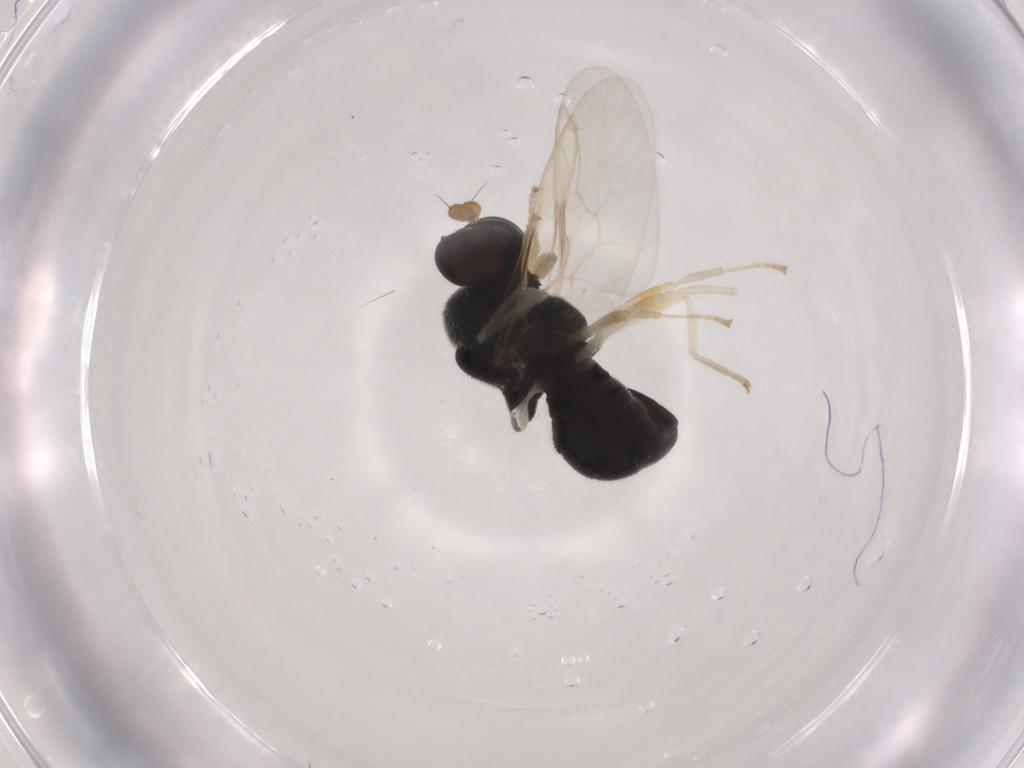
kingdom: Animalia
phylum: Arthropoda
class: Insecta
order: Diptera
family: Stratiomyidae
